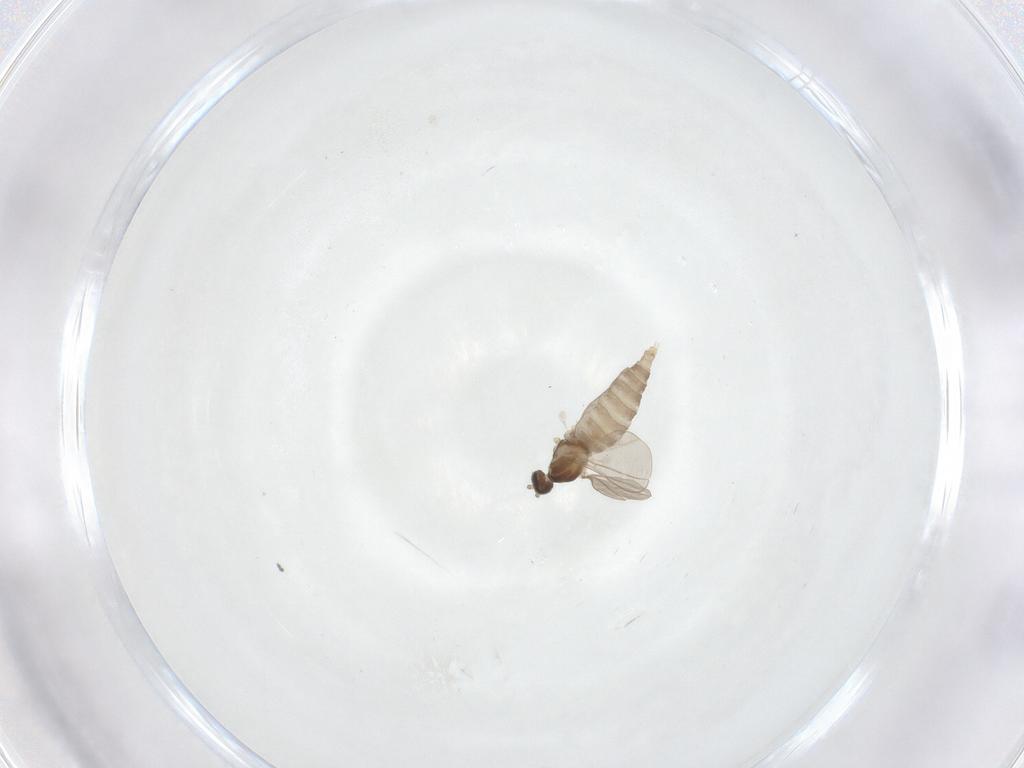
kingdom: Animalia
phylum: Arthropoda
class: Insecta
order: Diptera
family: Cecidomyiidae
